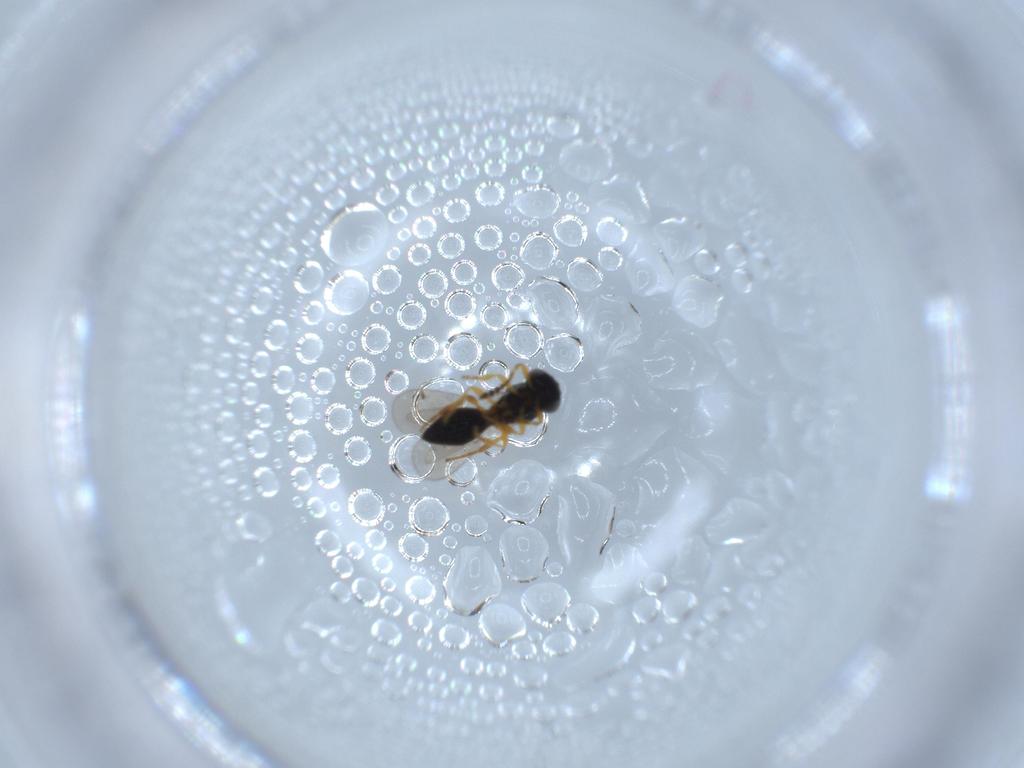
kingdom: Animalia
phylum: Arthropoda
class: Insecta
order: Hymenoptera
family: Platygastridae
